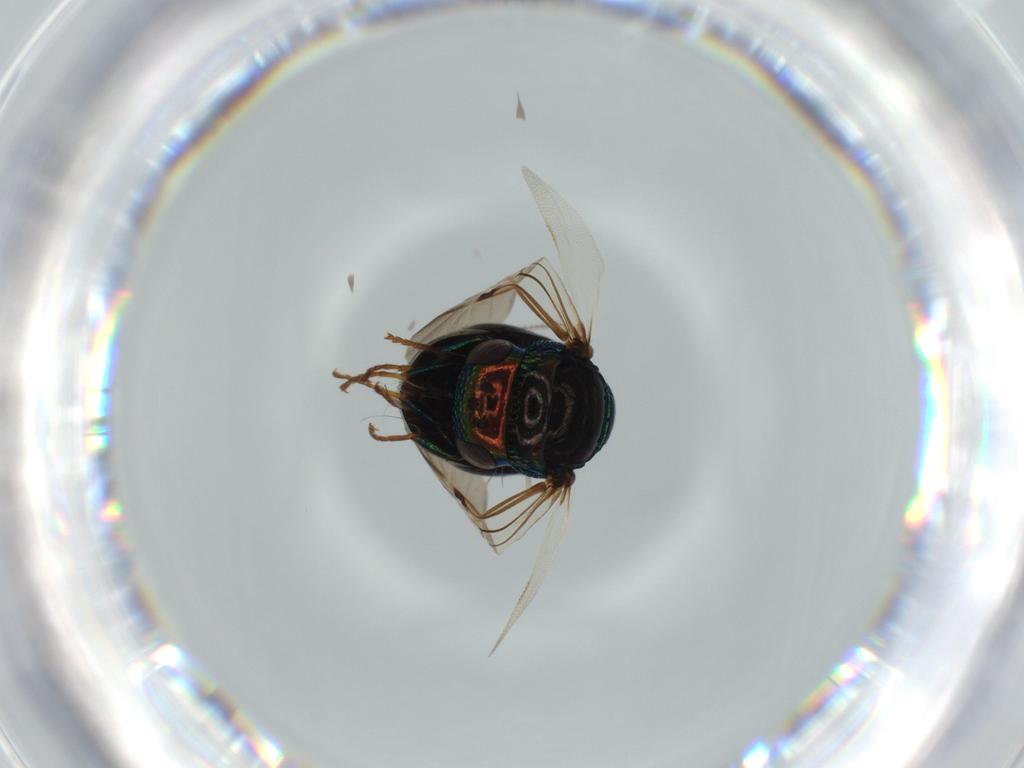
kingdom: Animalia
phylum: Arthropoda
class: Insecta
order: Hymenoptera
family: Chrysididae
